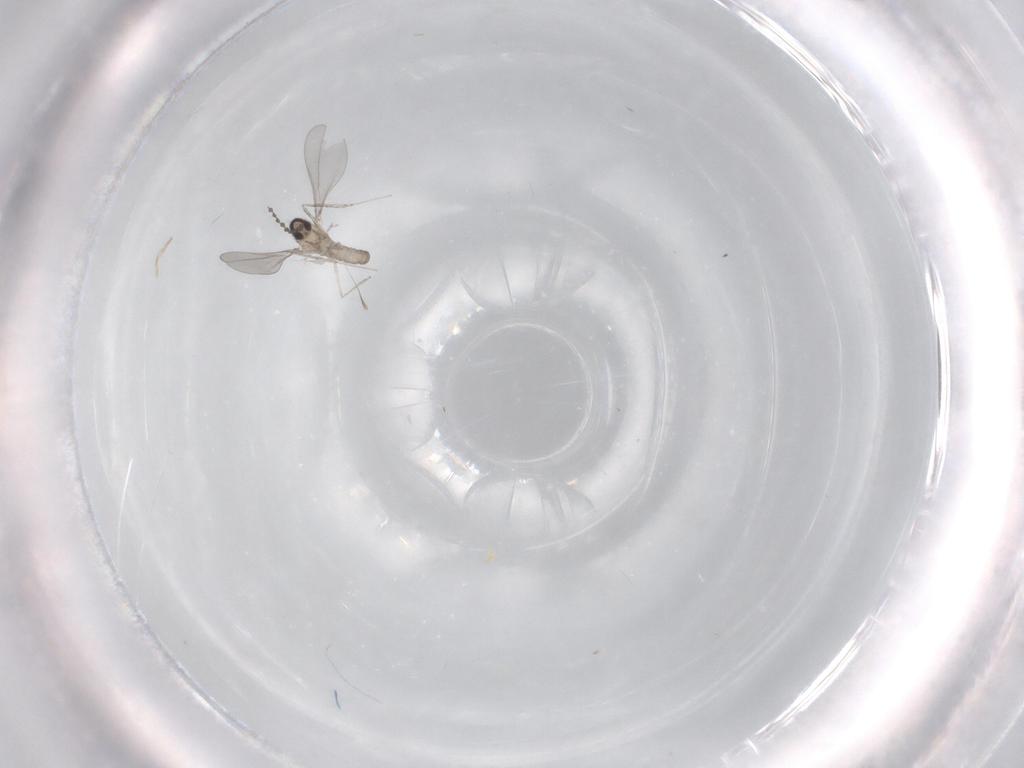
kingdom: Animalia
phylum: Arthropoda
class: Insecta
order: Diptera
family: Cecidomyiidae
